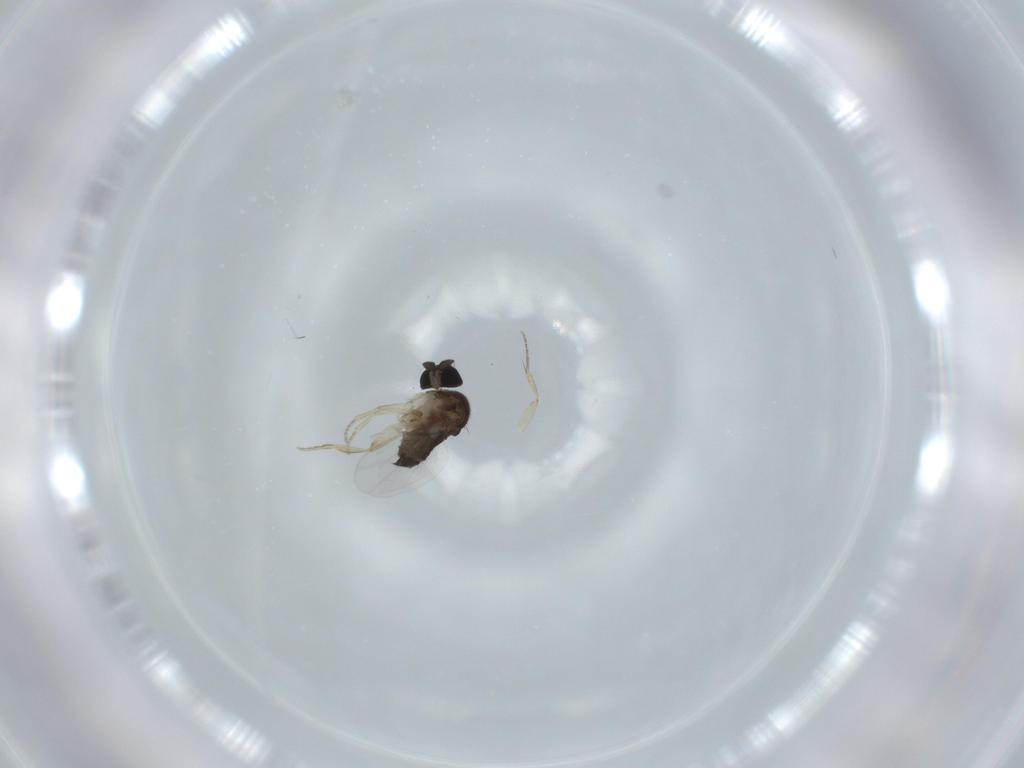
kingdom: Animalia
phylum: Arthropoda
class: Insecta
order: Diptera
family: Phoridae
